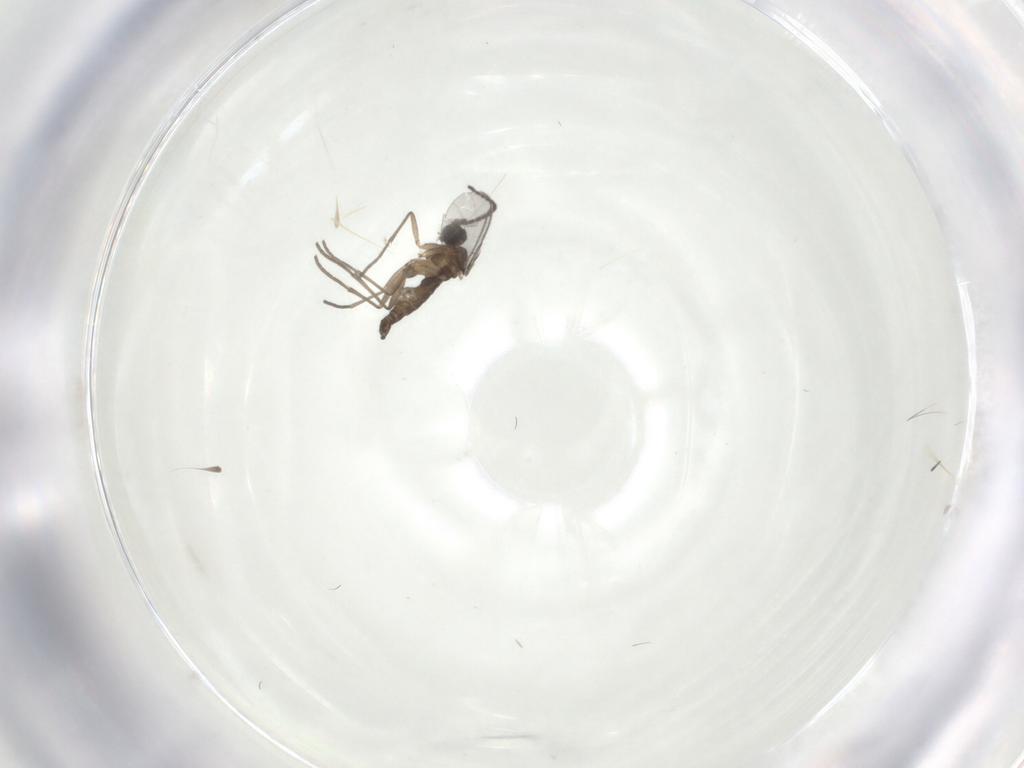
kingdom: Animalia
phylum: Arthropoda
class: Insecta
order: Diptera
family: Sciaridae
